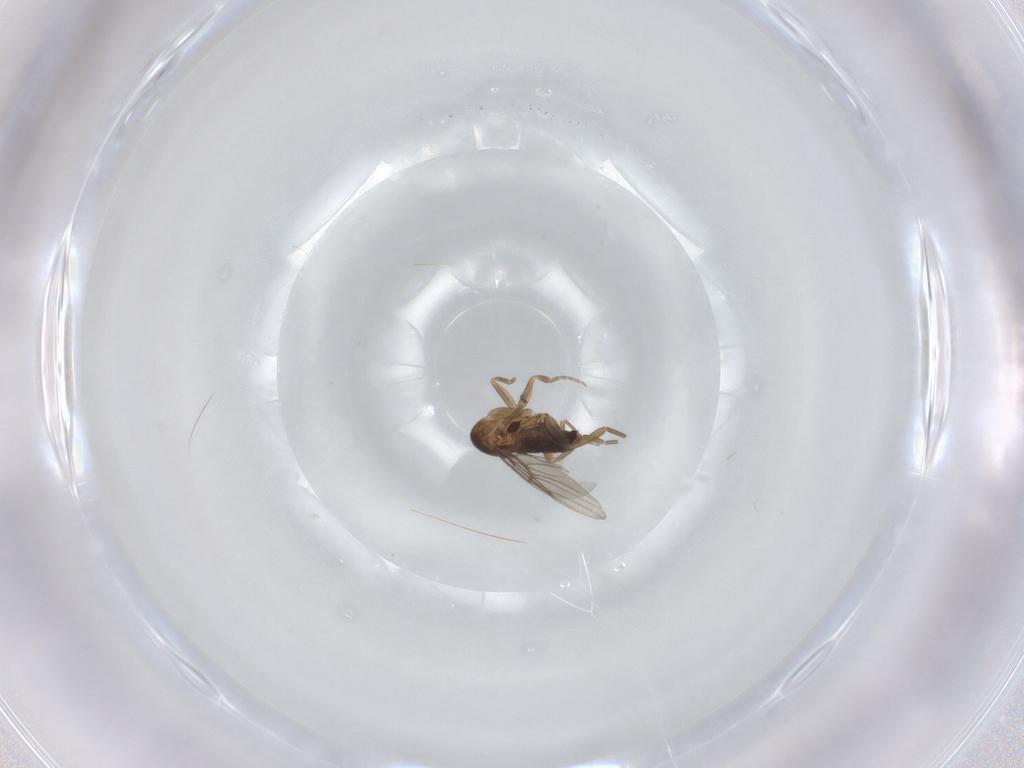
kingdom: Animalia
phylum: Arthropoda
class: Insecta
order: Diptera
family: Phoridae
